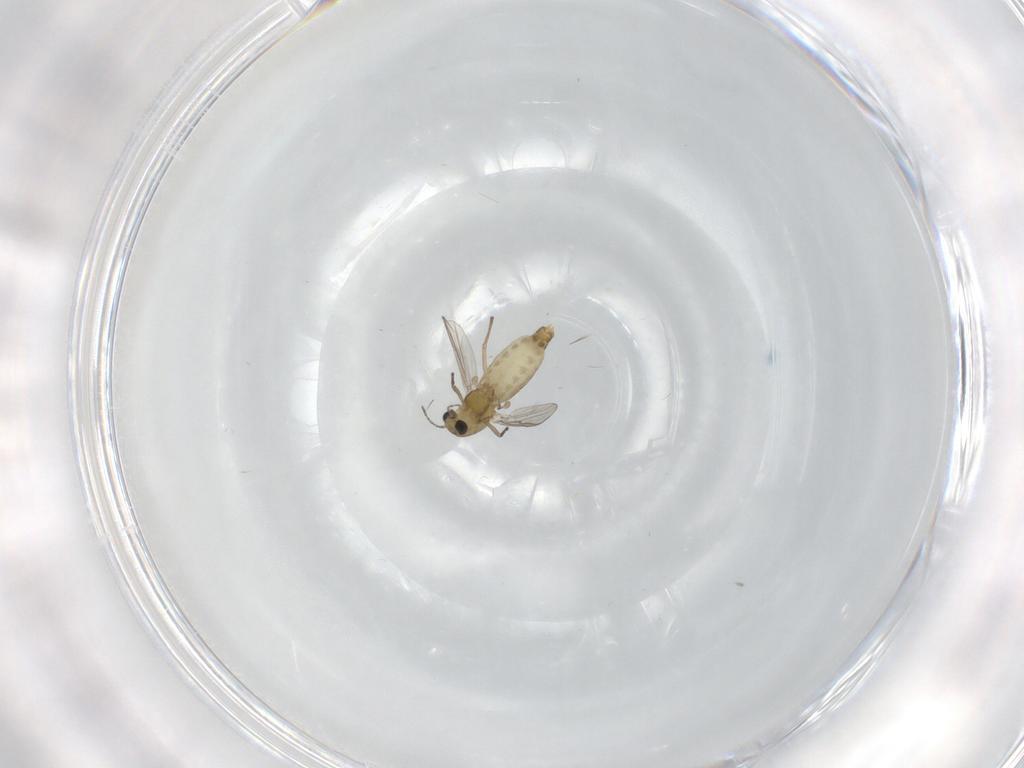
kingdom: Animalia
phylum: Arthropoda
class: Insecta
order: Diptera
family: Chironomidae
